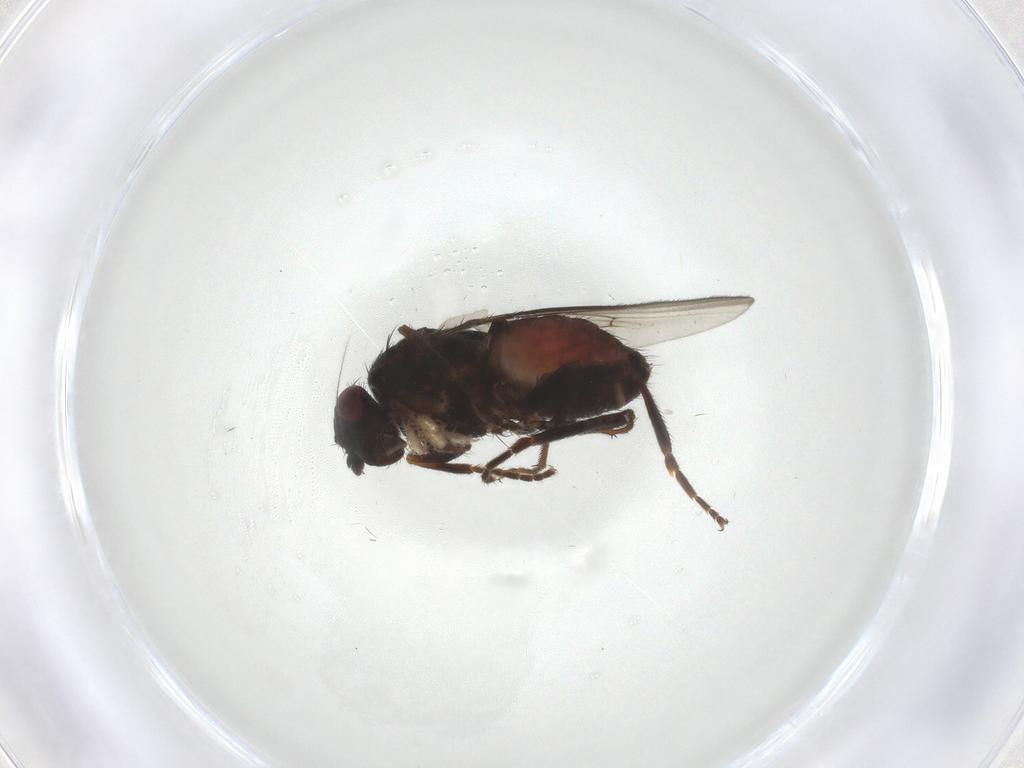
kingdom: Animalia
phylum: Arthropoda
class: Insecta
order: Diptera
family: Sphaeroceridae
